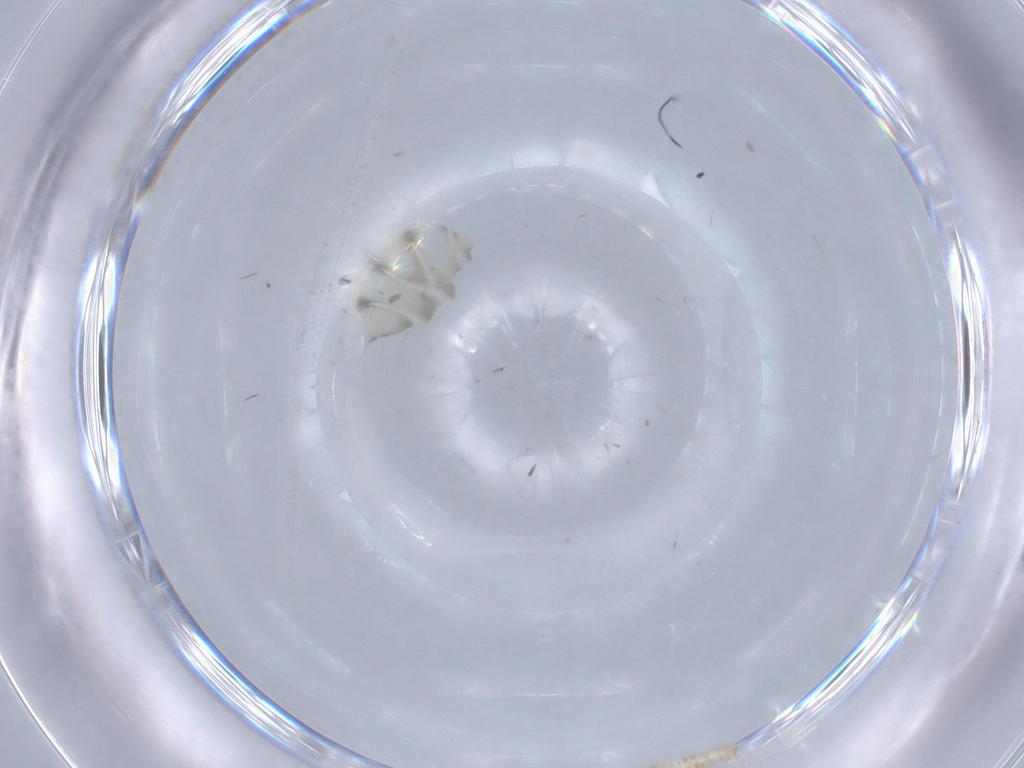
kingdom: Animalia
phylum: Arthropoda
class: Insecta
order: Diptera
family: Cecidomyiidae
